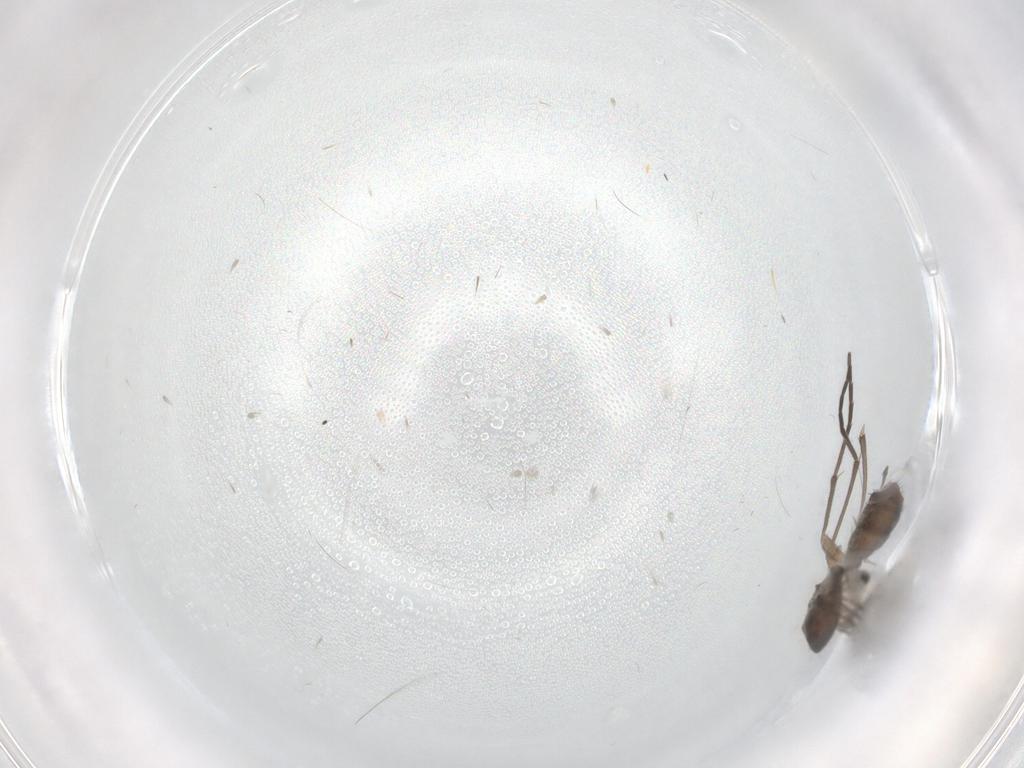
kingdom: Animalia
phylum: Arthropoda
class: Insecta
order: Diptera
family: Sciaridae
